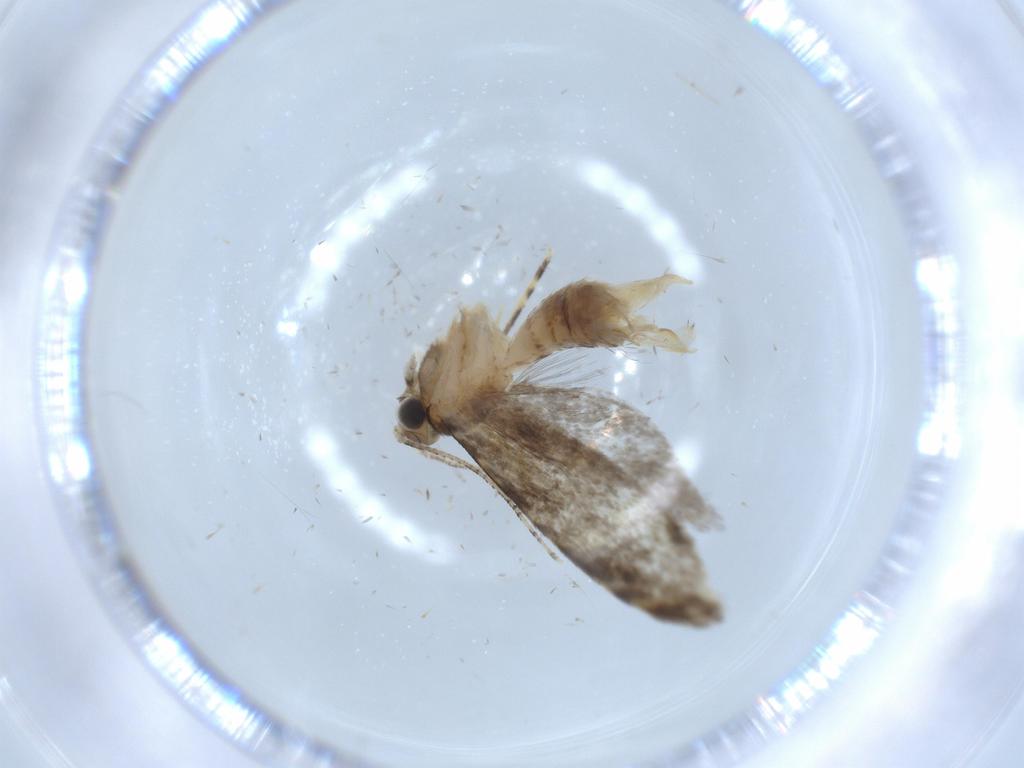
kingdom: Animalia
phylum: Arthropoda
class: Insecta
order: Lepidoptera
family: Tineidae
